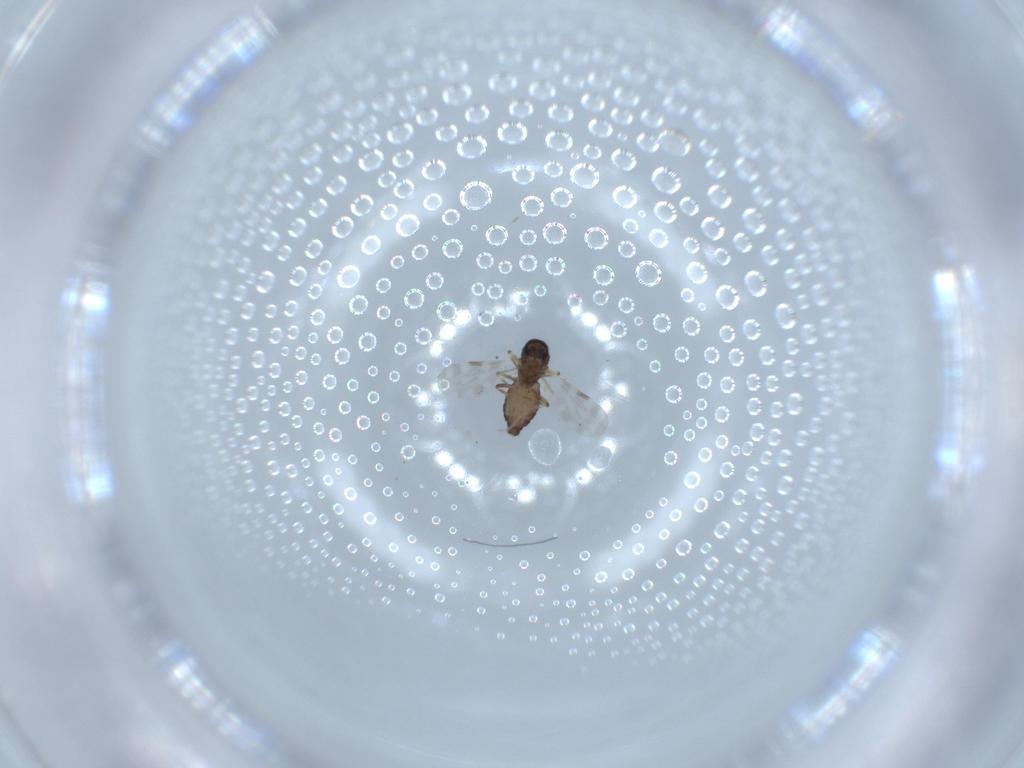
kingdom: Animalia
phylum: Arthropoda
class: Insecta
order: Diptera
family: Ceratopogonidae
